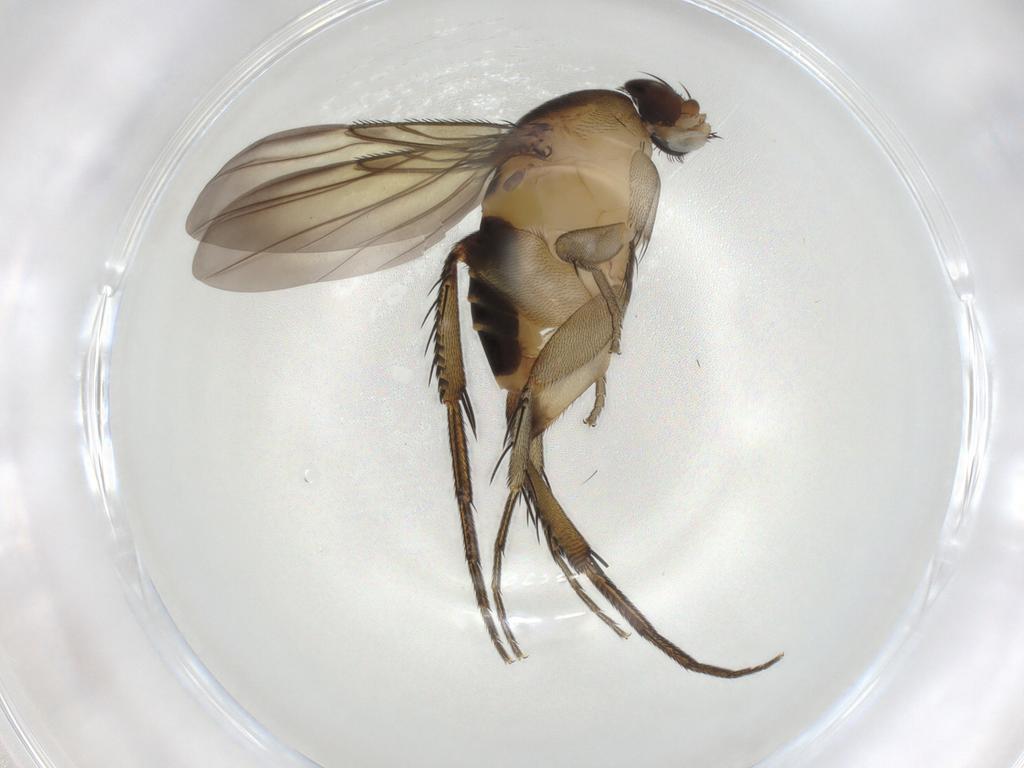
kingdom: Animalia
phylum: Arthropoda
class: Insecta
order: Diptera
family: Phoridae
